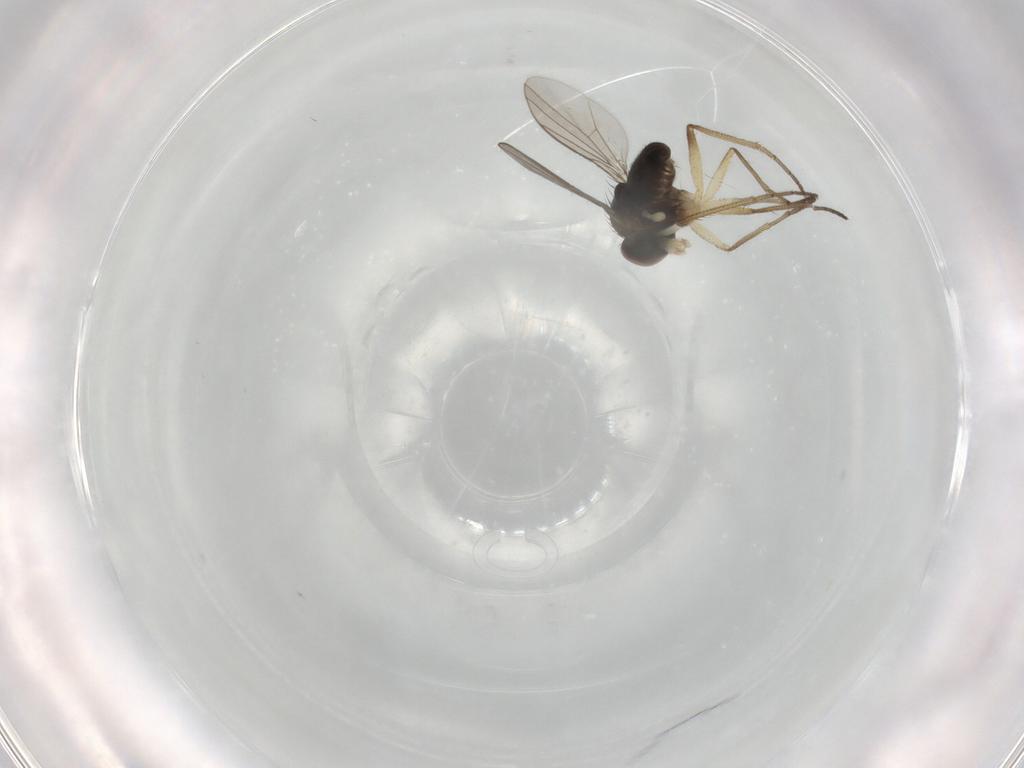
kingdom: Animalia
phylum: Arthropoda
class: Insecta
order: Diptera
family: Dolichopodidae
